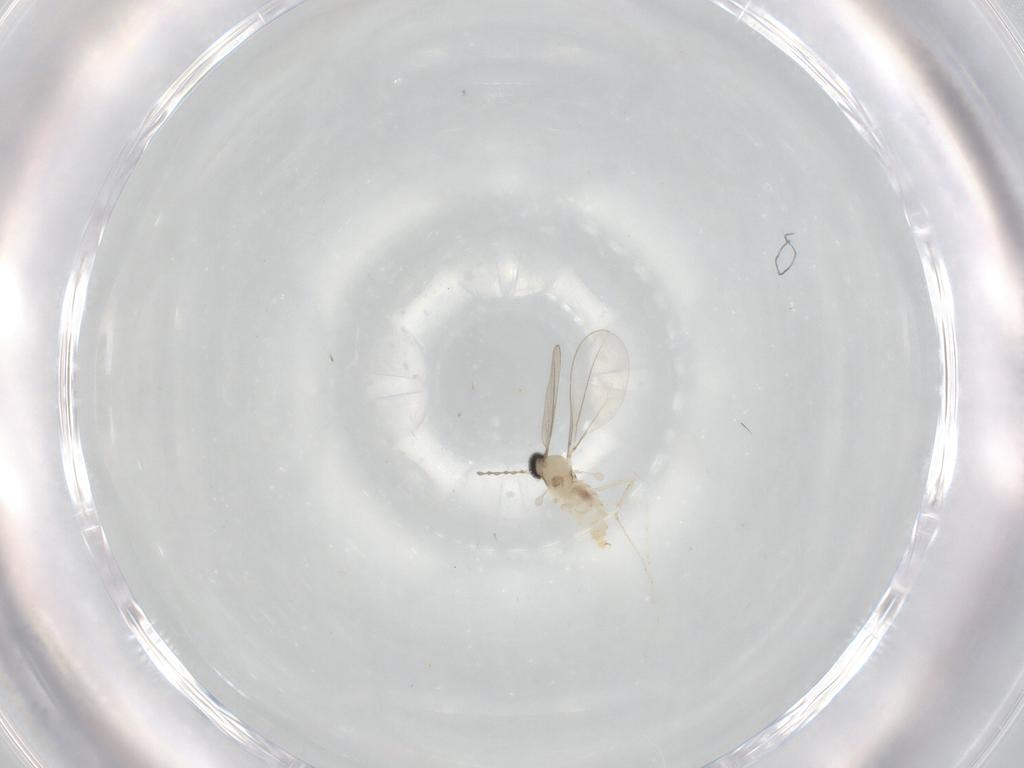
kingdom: Animalia
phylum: Arthropoda
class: Insecta
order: Diptera
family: Cecidomyiidae
